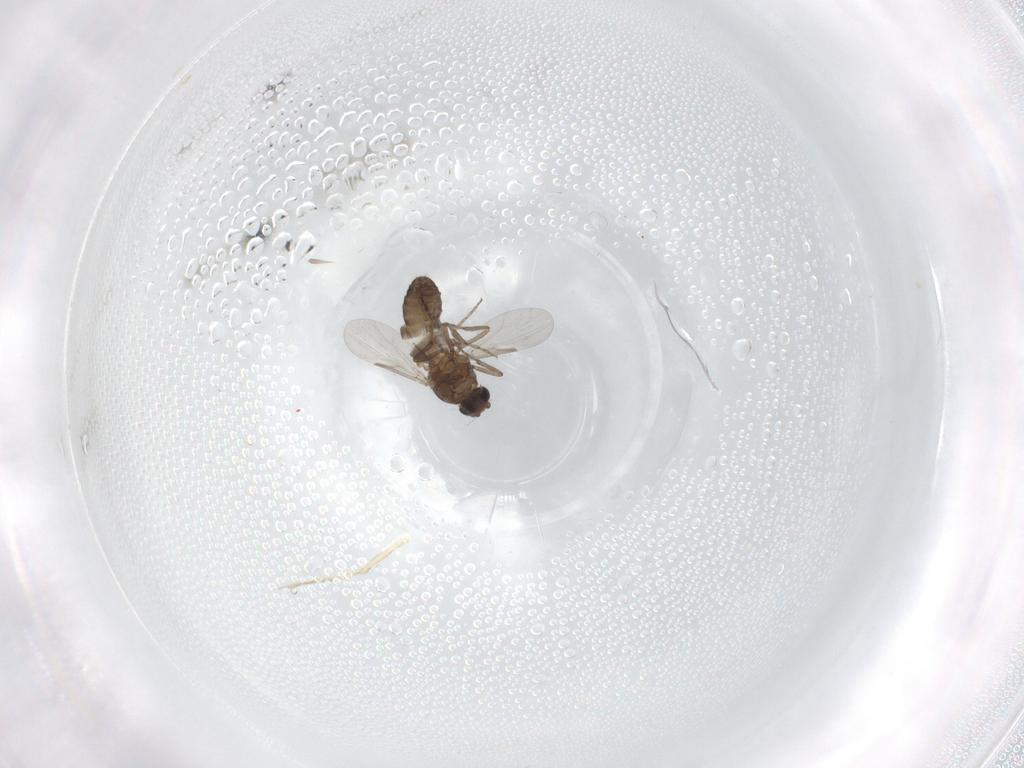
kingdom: Animalia
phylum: Arthropoda
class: Insecta
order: Diptera
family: Ceratopogonidae
